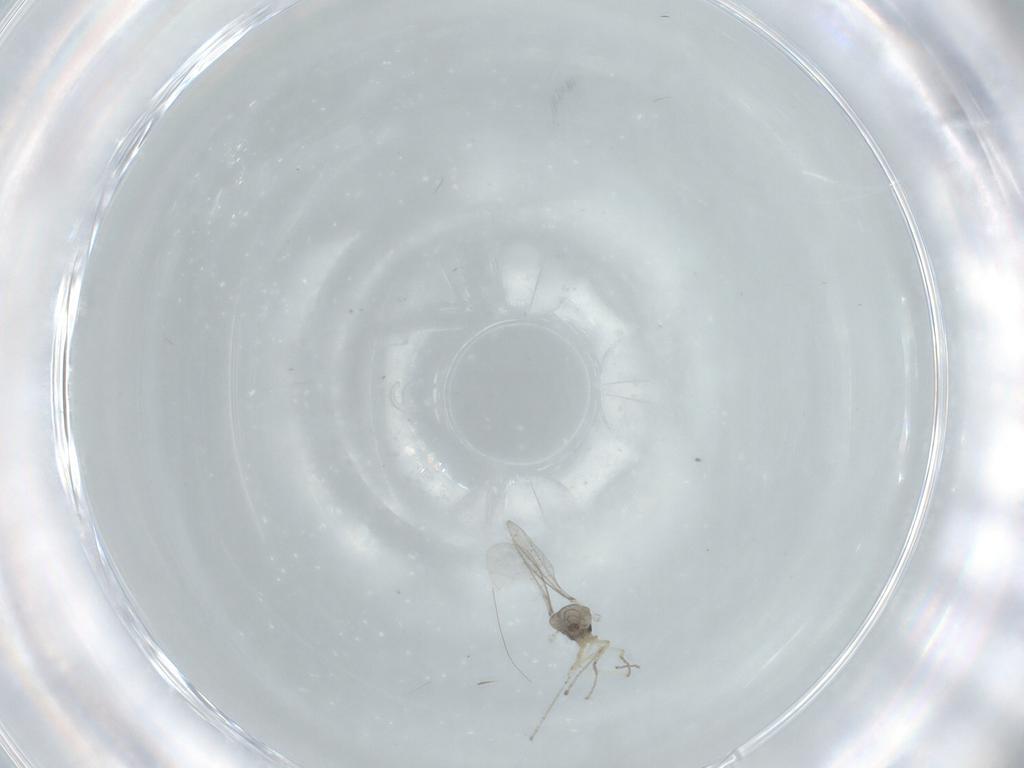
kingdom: Animalia
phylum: Arthropoda
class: Insecta
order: Diptera
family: Cecidomyiidae
